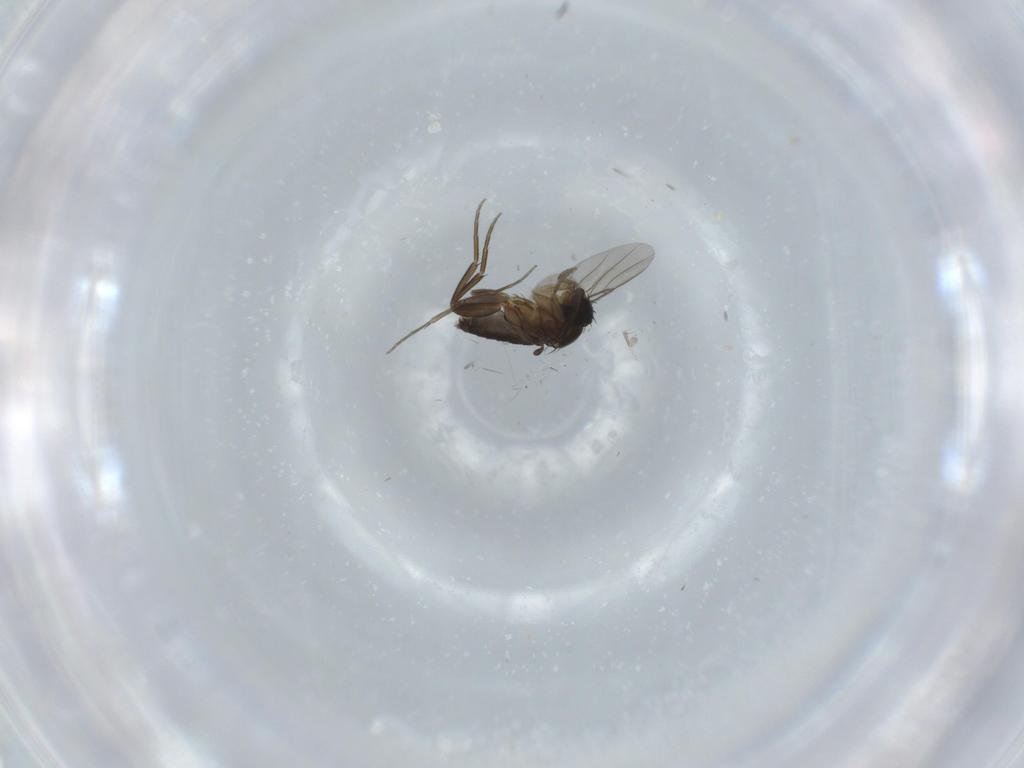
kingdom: Animalia
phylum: Arthropoda
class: Insecta
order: Diptera
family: Phoridae
